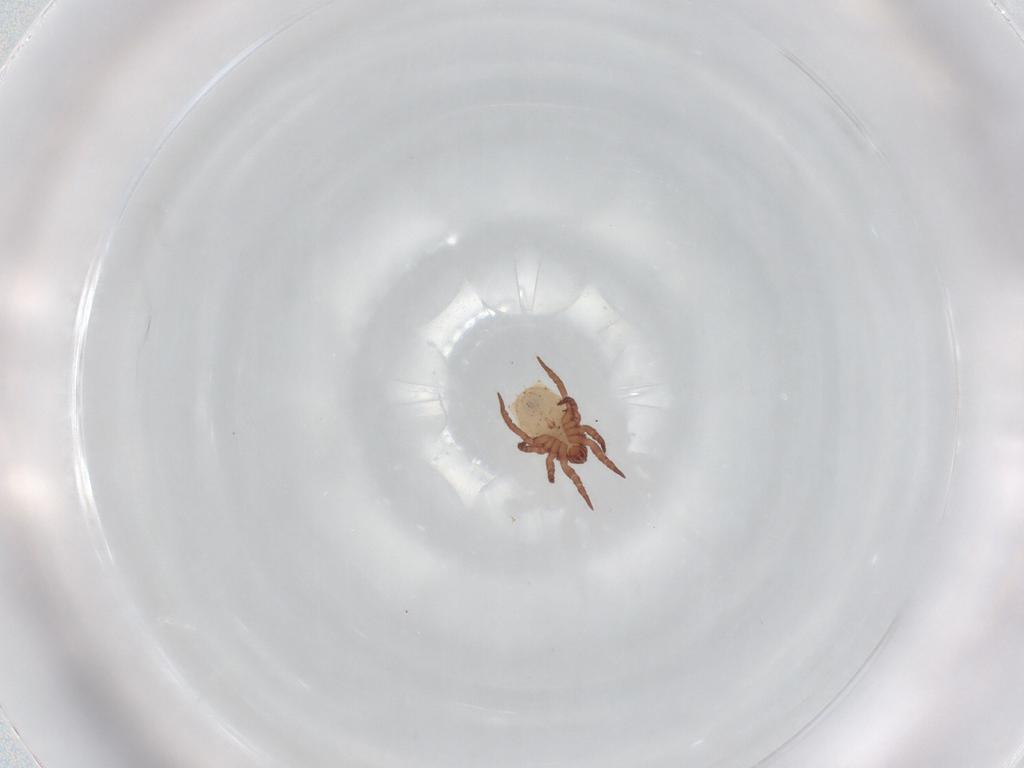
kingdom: Animalia
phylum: Arthropoda
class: Arachnida
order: Sarcoptiformes
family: Nothridae
